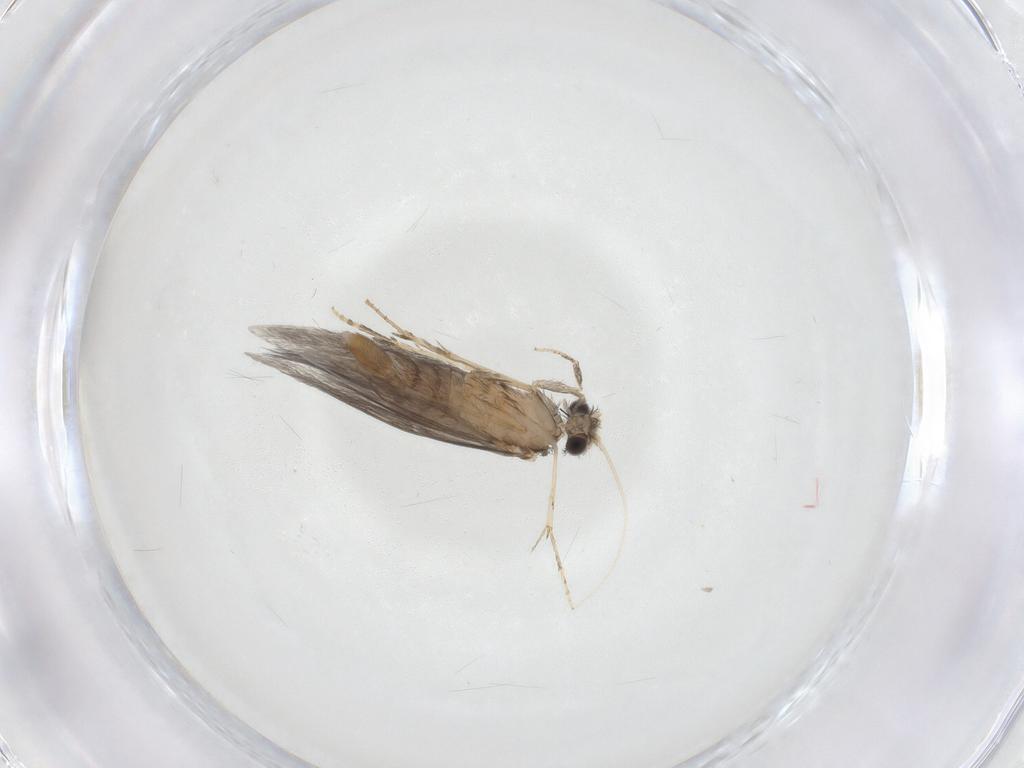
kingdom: Animalia
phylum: Arthropoda
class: Insecta
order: Trichoptera
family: Hydroptilidae
